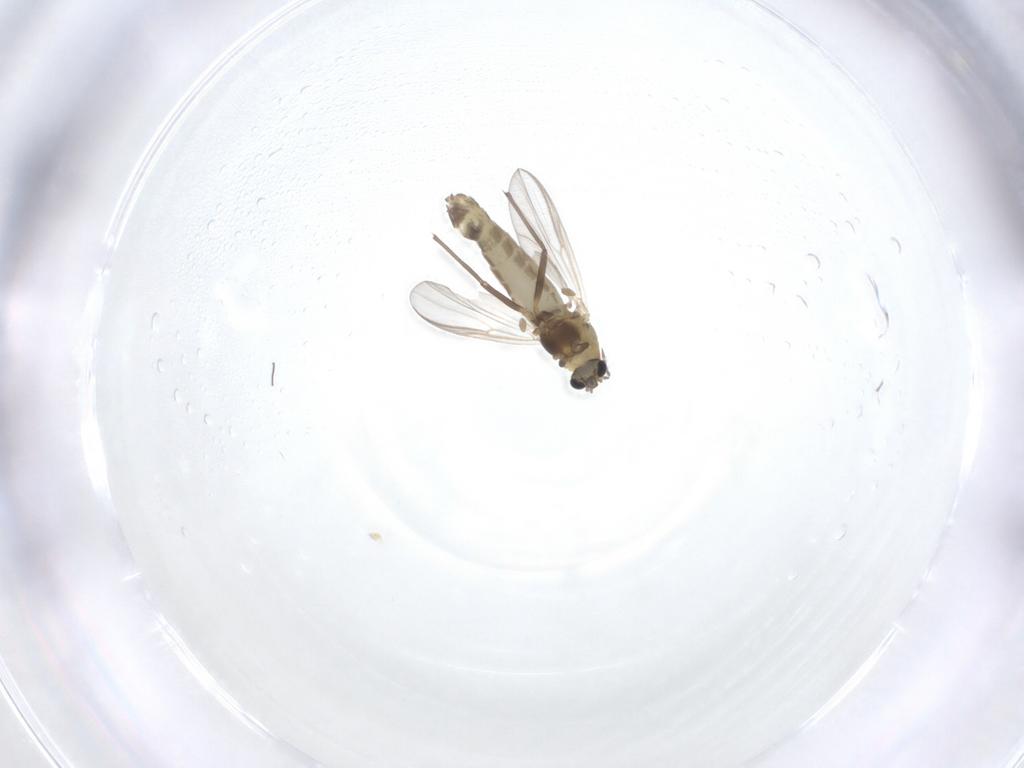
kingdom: Animalia
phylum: Arthropoda
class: Insecta
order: Diptera
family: Chironomidae
